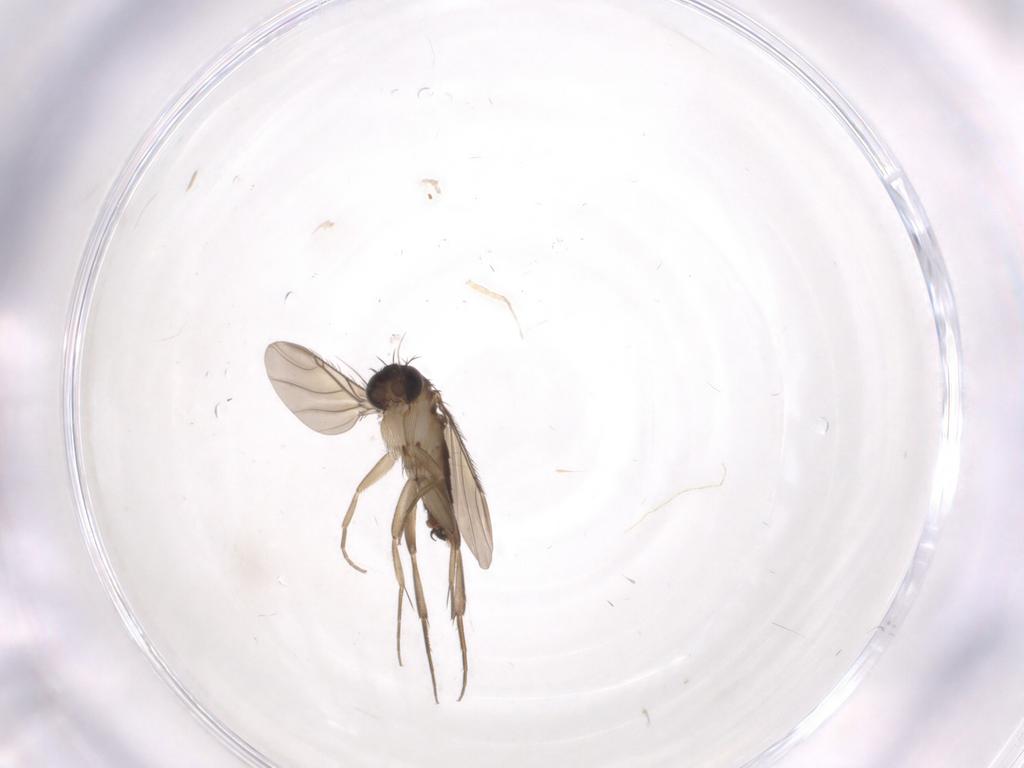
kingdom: Animalia
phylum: Arthropoda
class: Insecta
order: Diptera
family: Phoridae
